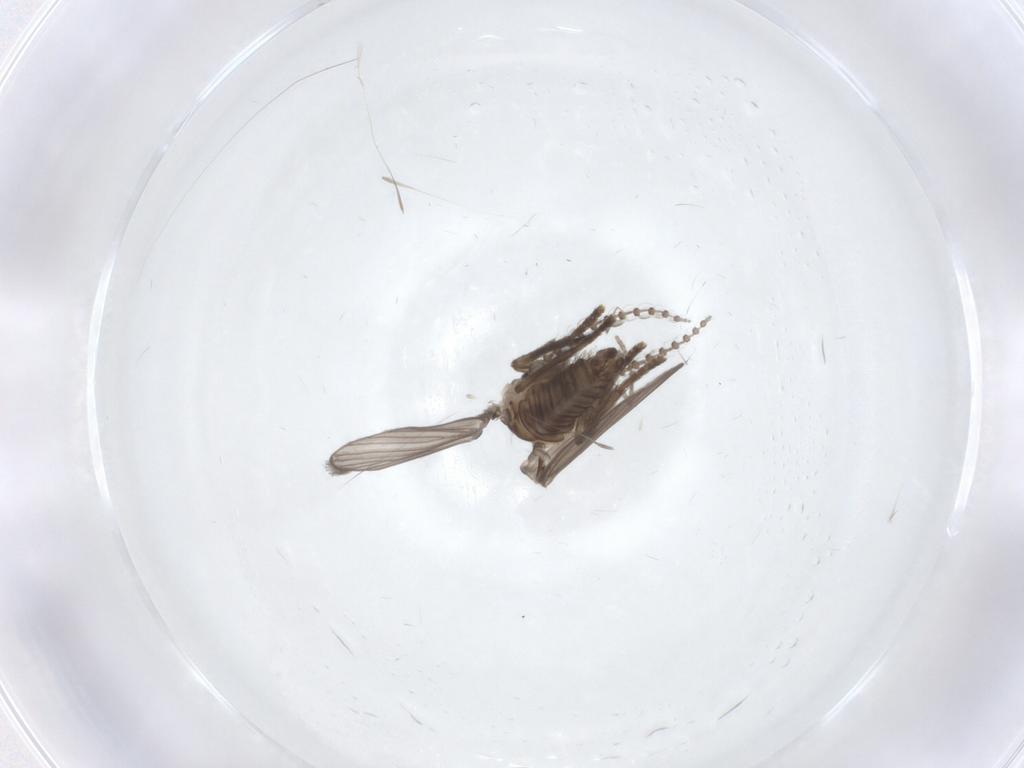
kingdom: Animalia
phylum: Arthropoda
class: Insecta
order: Diptera
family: Psychodidae
